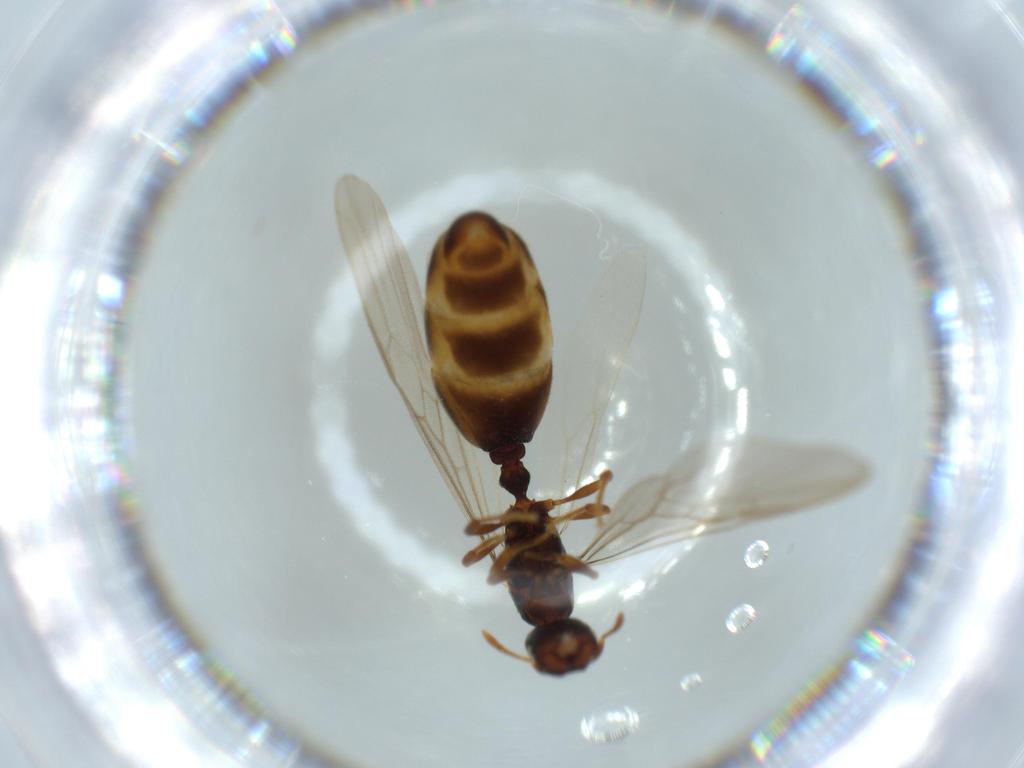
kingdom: Animalia
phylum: Arthropoda
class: Insecta
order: Hymenoptera
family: Formicidae
